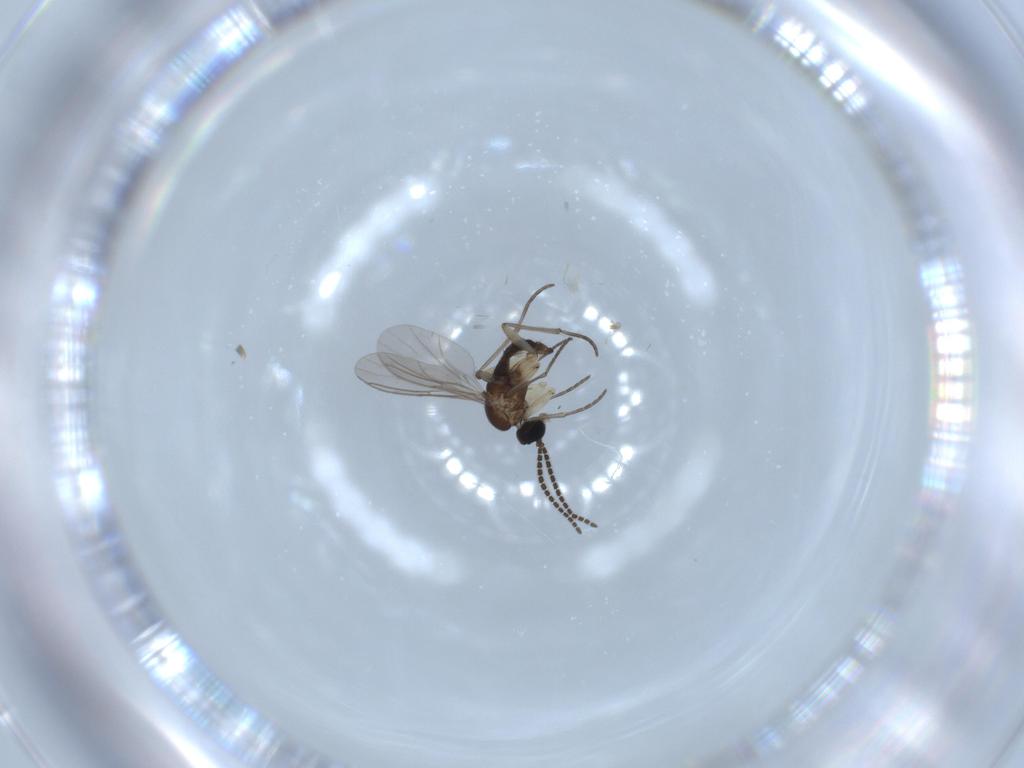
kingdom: Animalia
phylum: Arthropoda
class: Insecta
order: Diptera
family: Sciaridae
